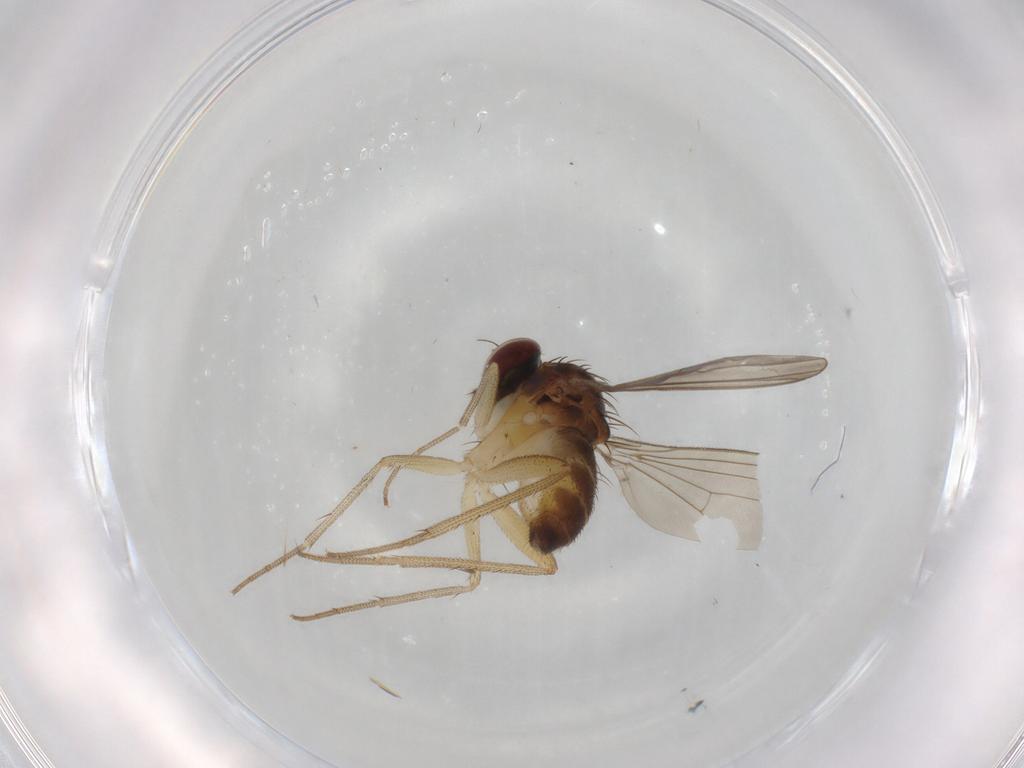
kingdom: Animalia
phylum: Arthropoda
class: Insecta
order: Diptera
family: Dolichopodidae
